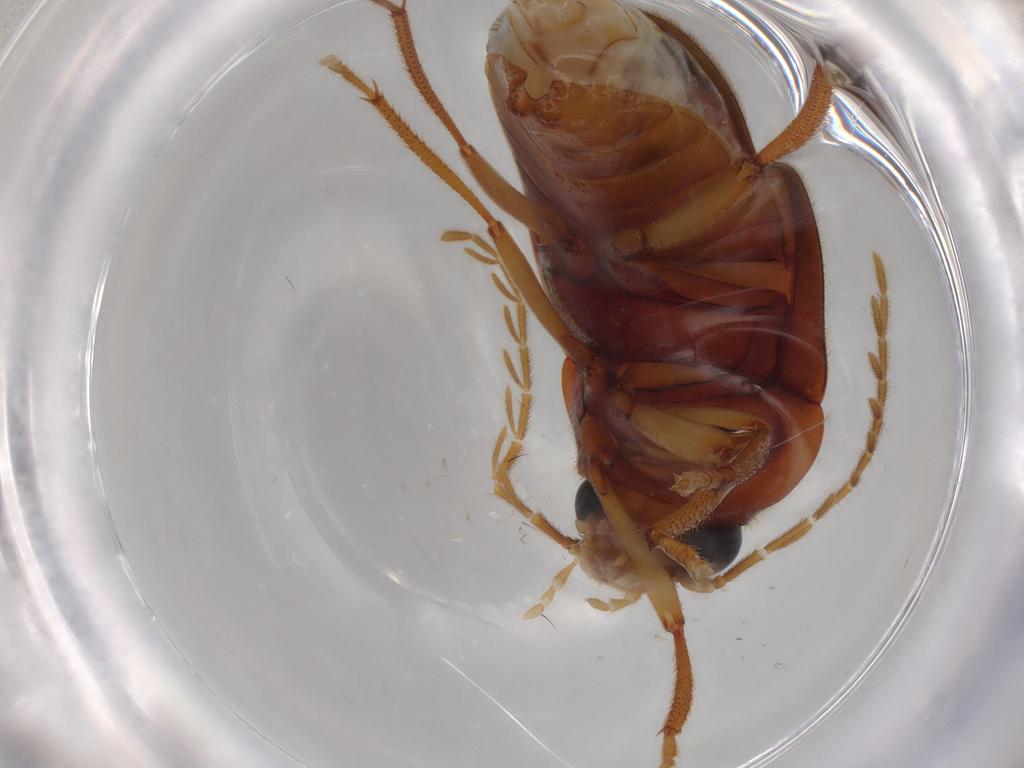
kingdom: Animalia
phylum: Arthropoda
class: Insecta
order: Coleoptera
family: Ptilodactylidae
